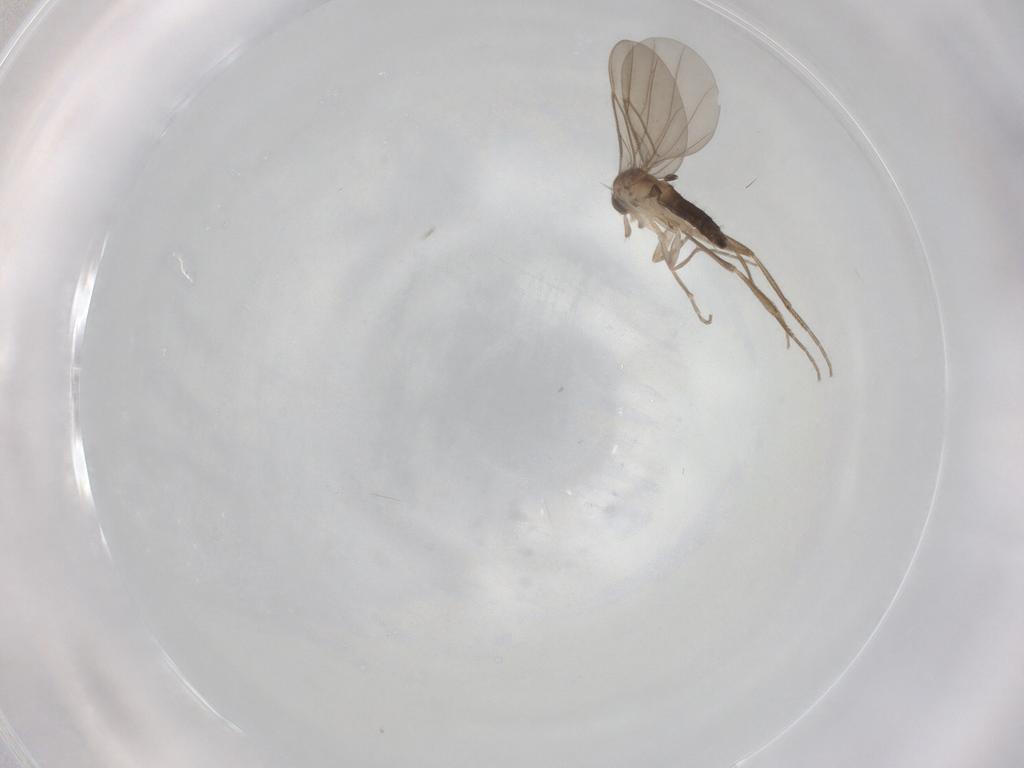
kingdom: Animalia
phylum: Arthropoda
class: Insecta
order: Diptera
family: Phoridae
